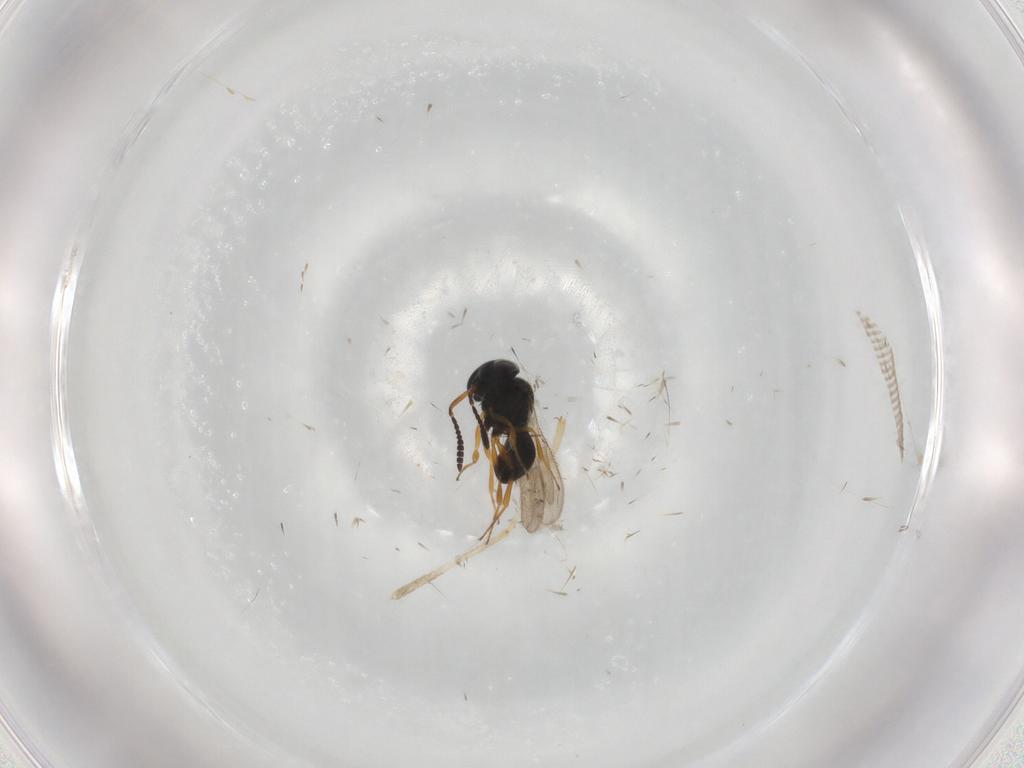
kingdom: Animalia
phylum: Arthropoda
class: Insecta
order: Hymenoptera
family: Scelionidae
